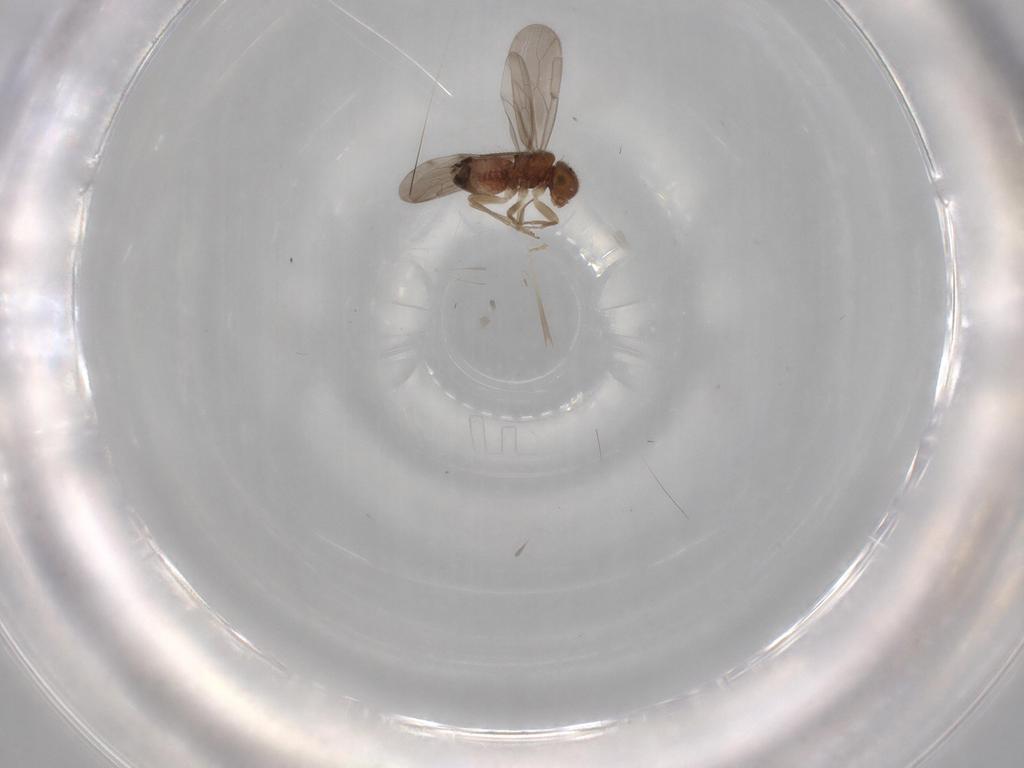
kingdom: Animalia
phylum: Arthropoda
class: Insecta
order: Psocodea
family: Ectopsocidae
